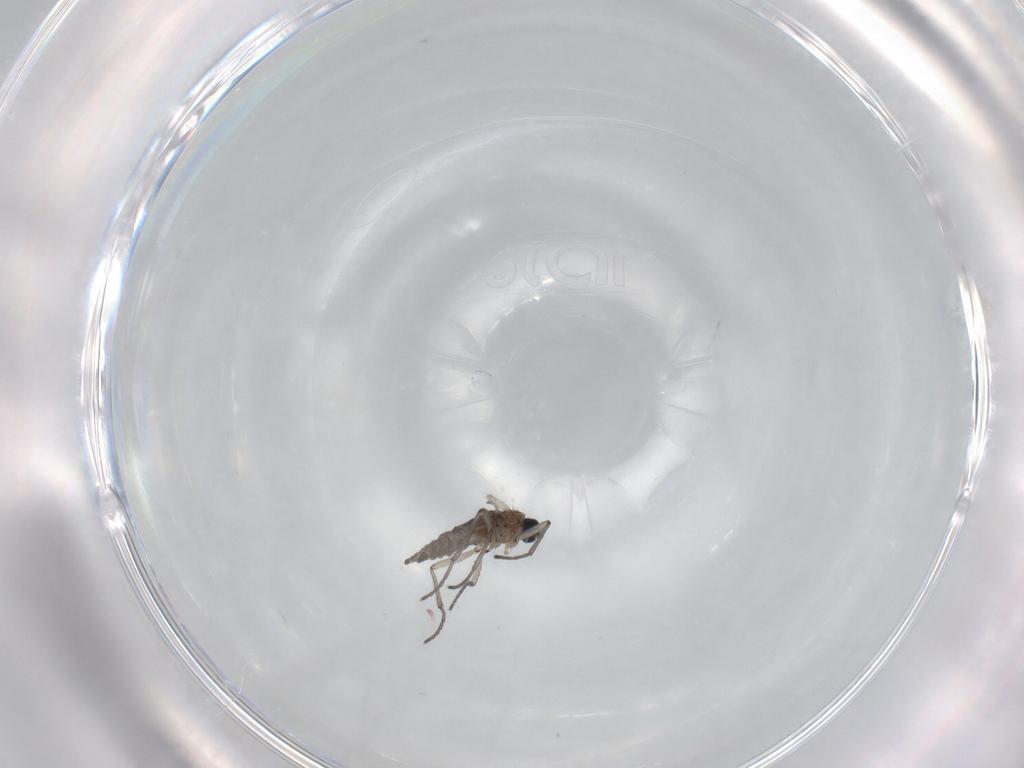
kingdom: Animalia
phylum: Arthropoda
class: Insecta
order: Diptera
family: Sciaridae
